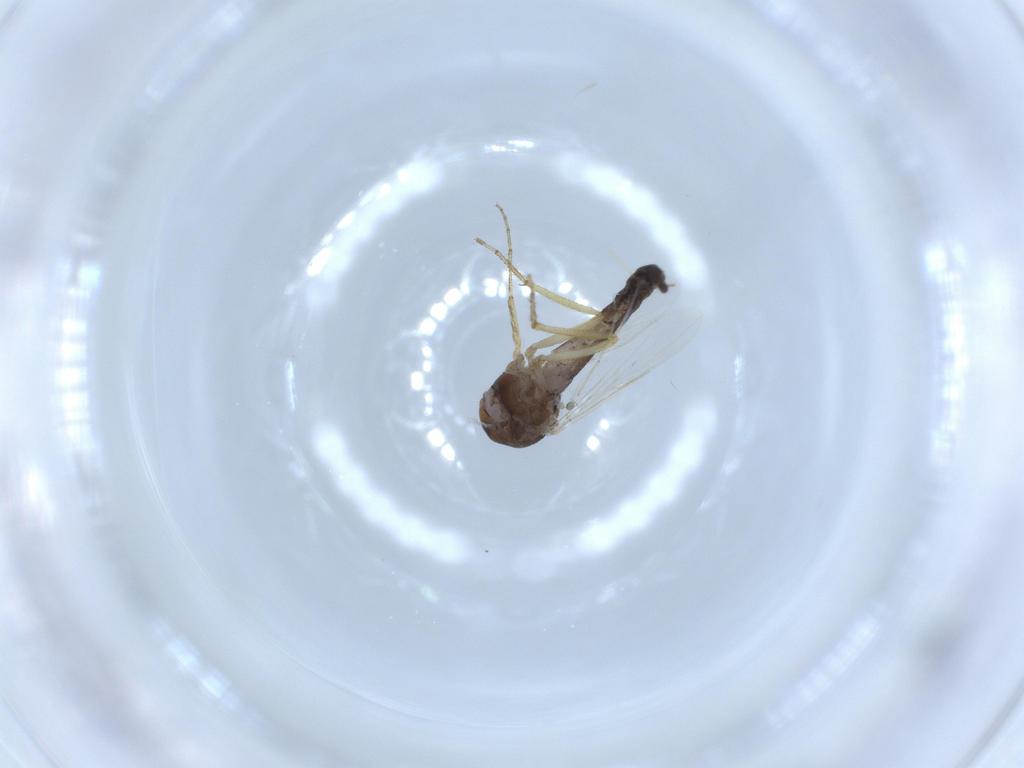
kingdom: Animalia
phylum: Arthropoda
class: Insecta
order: Diptera
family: Ceratopogonidae
